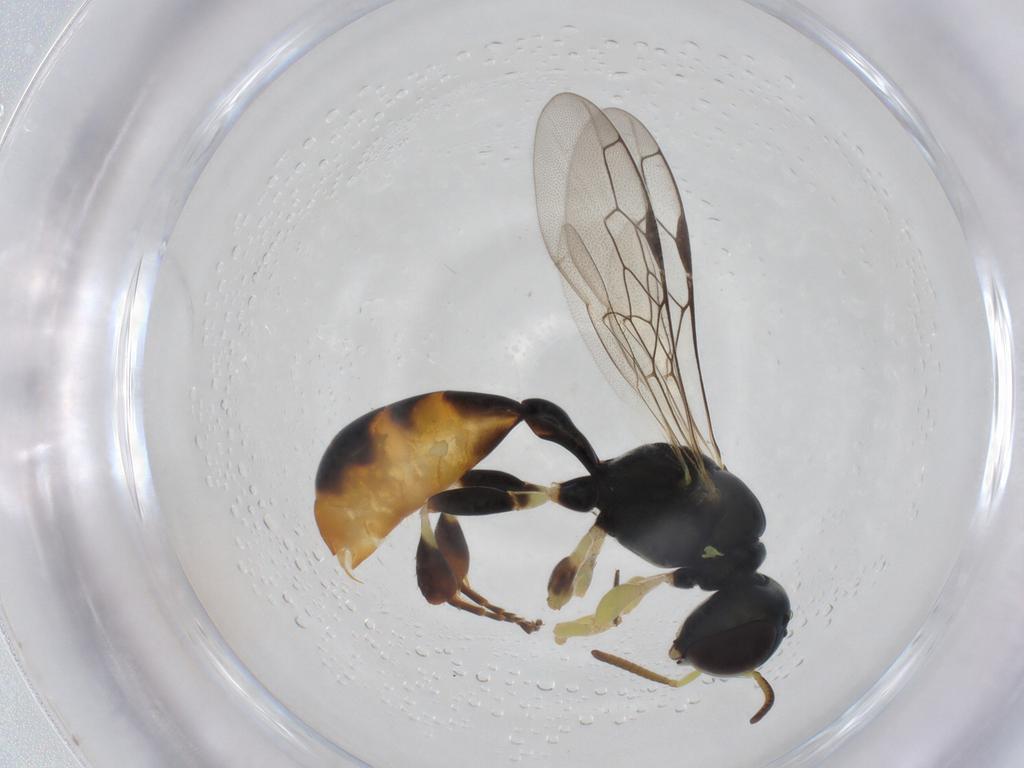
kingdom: Animalia
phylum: Arthropoda
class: Insecta
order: Hymenoptera
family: Crabronidae
